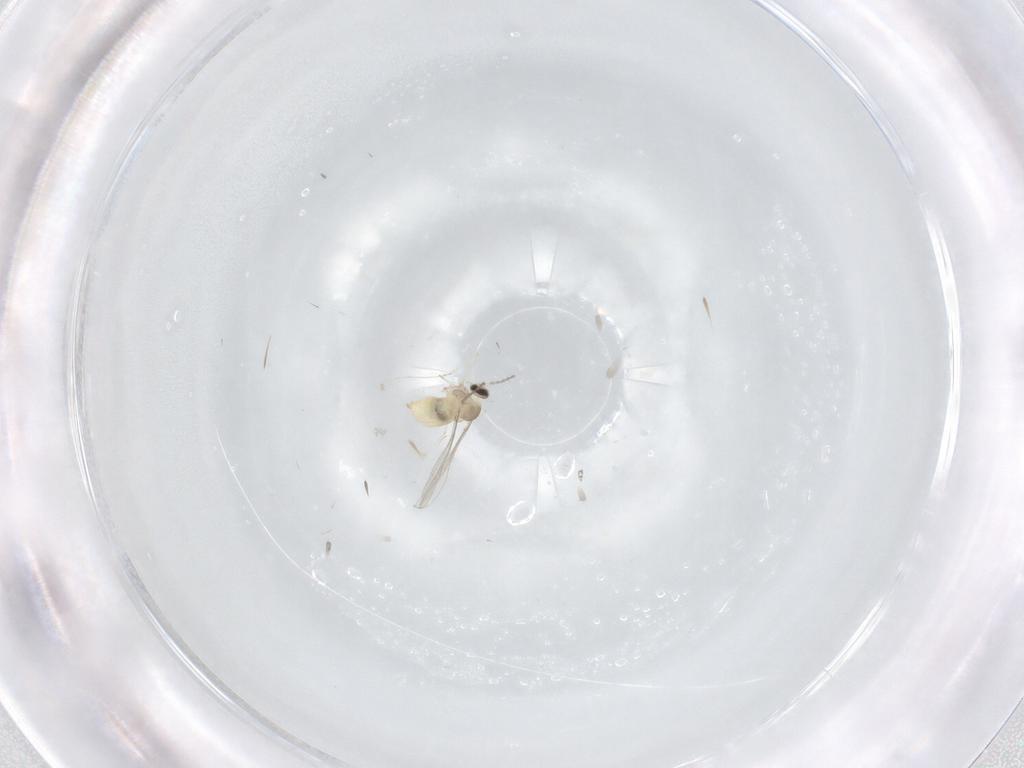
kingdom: Animalia
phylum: Arthropoda
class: Insecta
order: Diptera
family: Cecidomyiidae
